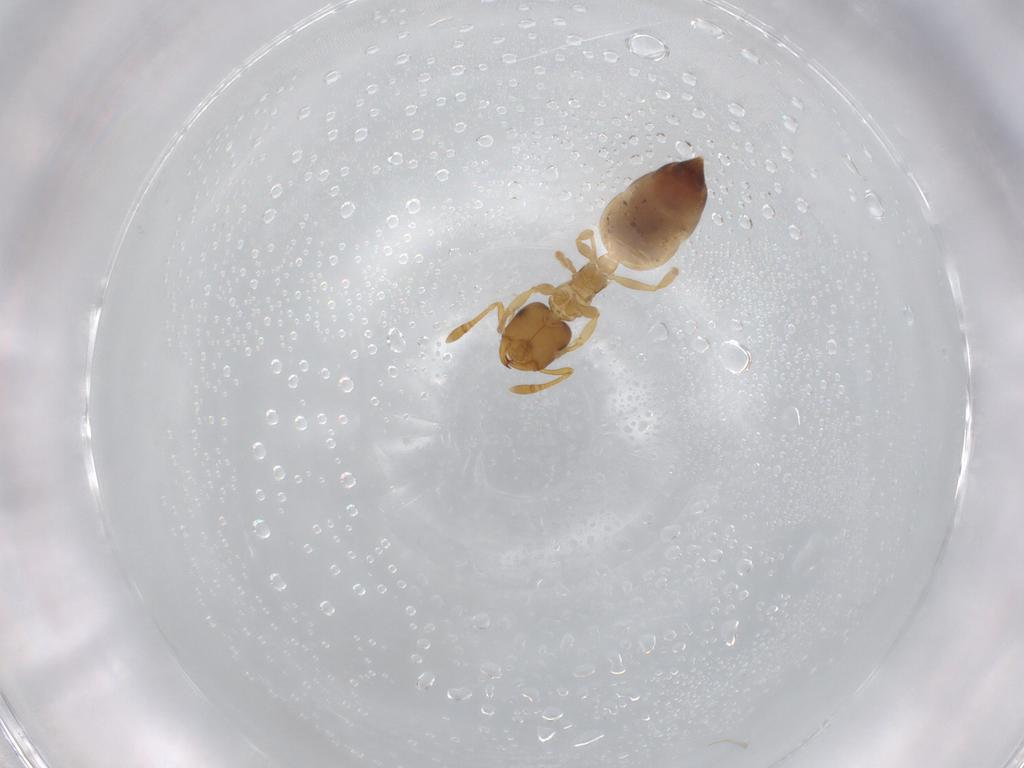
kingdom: Animalia
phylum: Arthropoda
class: Insecta
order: Hymenoptera
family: Formicidae
